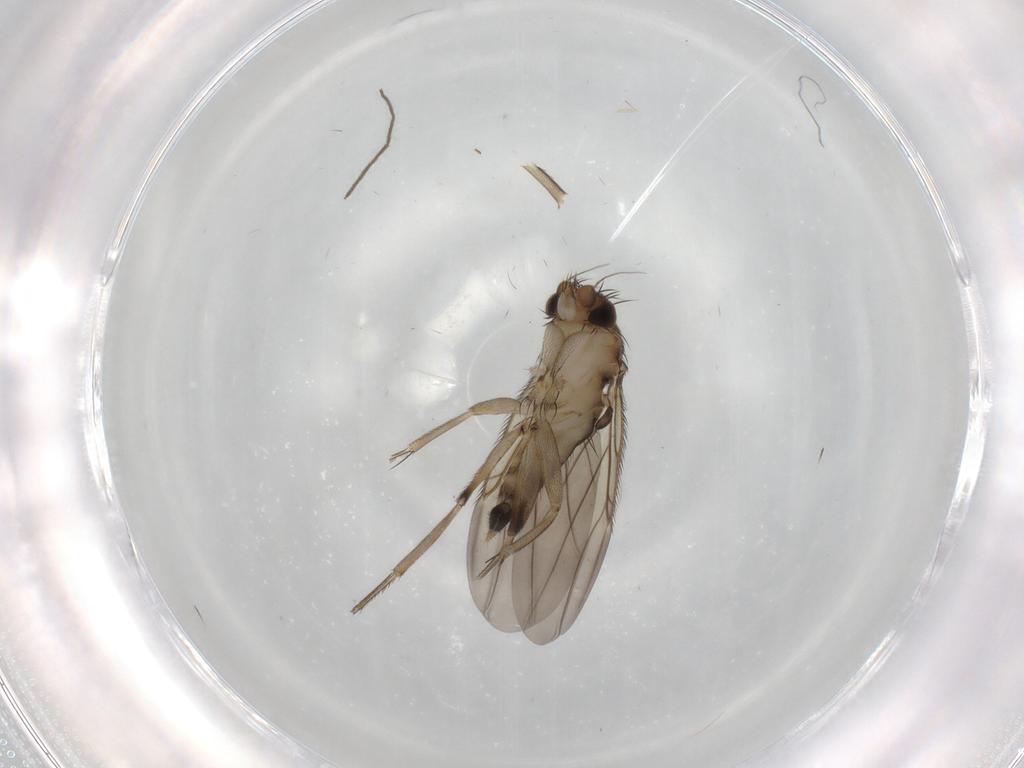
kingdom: Animalia
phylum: Arthropoda
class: Insecta
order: Diptera
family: Phoridae
